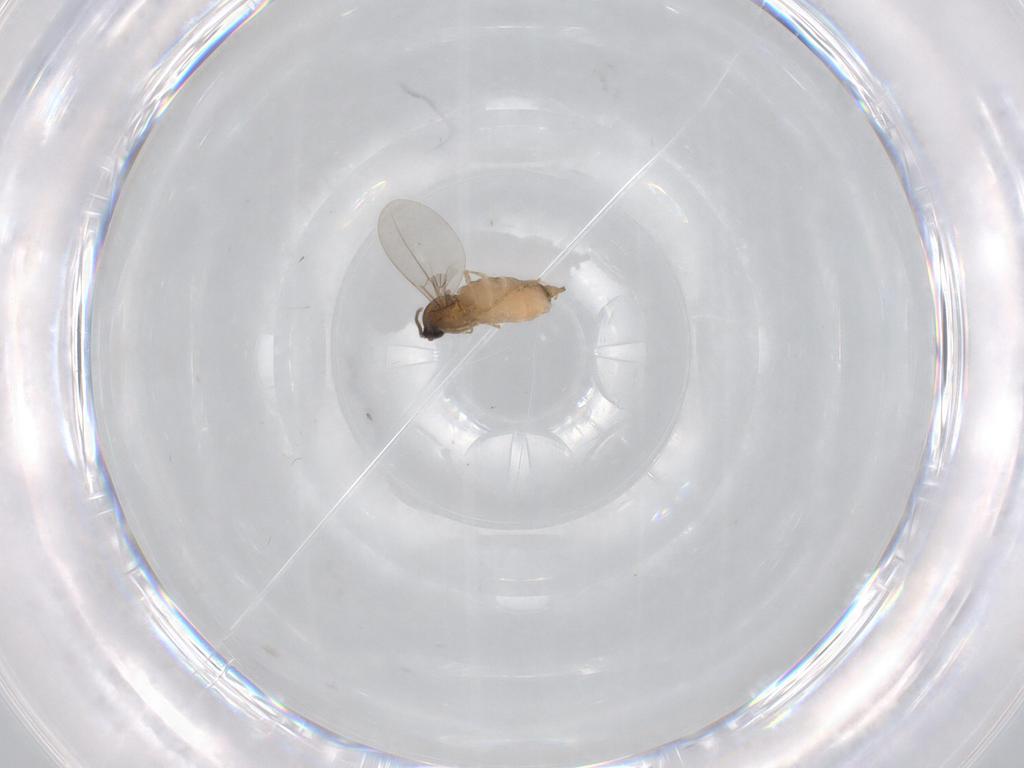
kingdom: Animalia
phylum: Arthropoda
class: Insecta
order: Diptera
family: Cecidomyiidae
